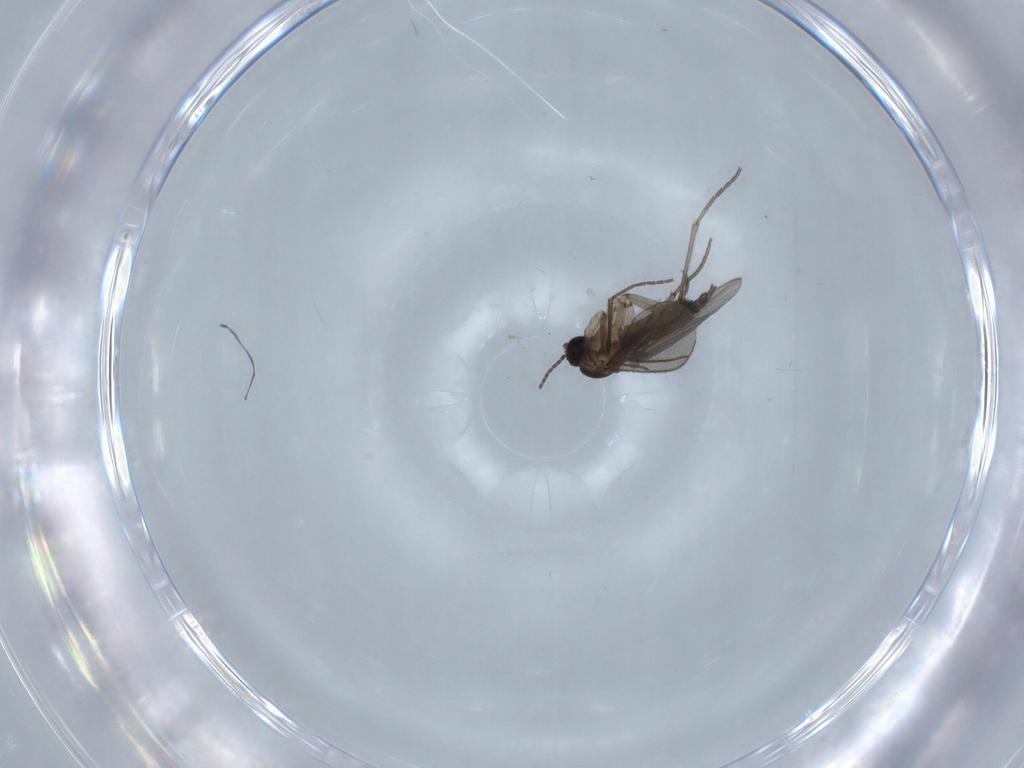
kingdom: Animalia
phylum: Arthropoda
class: Insecta
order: Diptera
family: Sciaridae
